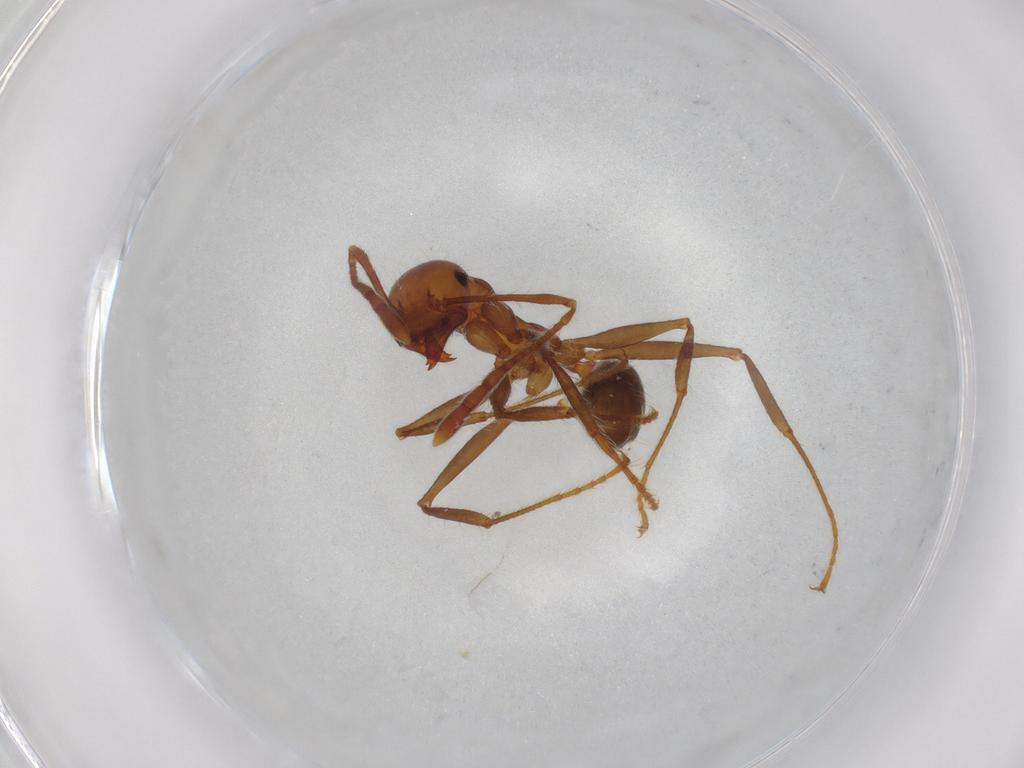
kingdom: Animalia
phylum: Arthropoda
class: Insecta
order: Hymenoptera
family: Formicidae
